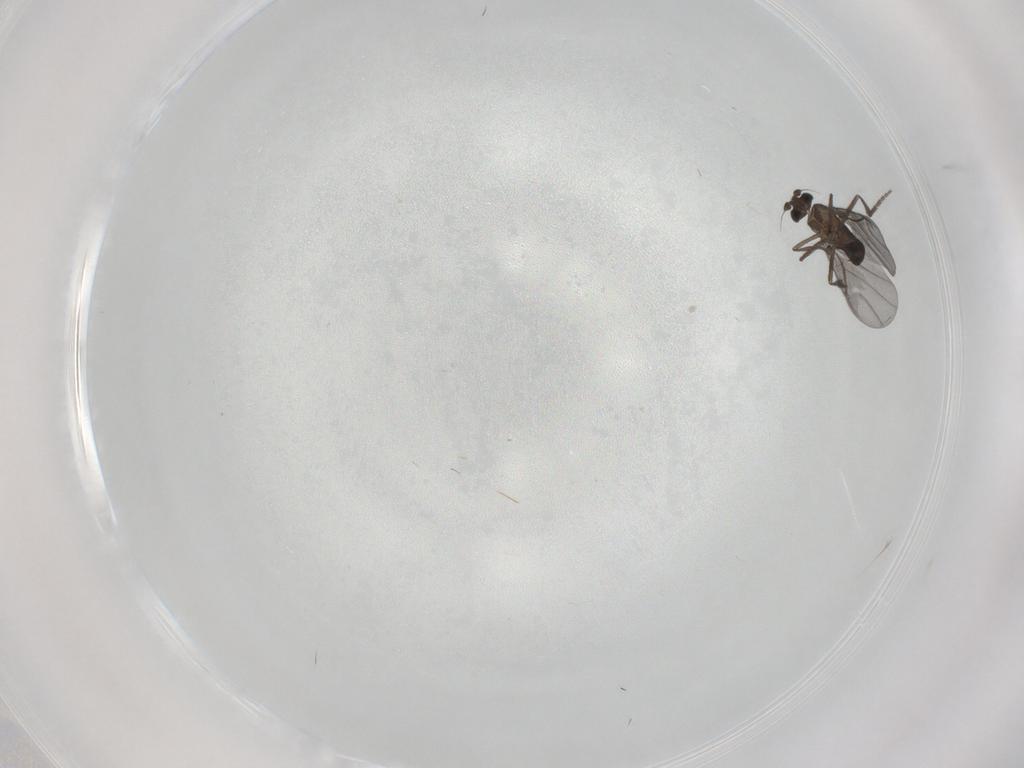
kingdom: Animalia
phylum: Arthropoda
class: Insecta
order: Diptera
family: Phoridae
